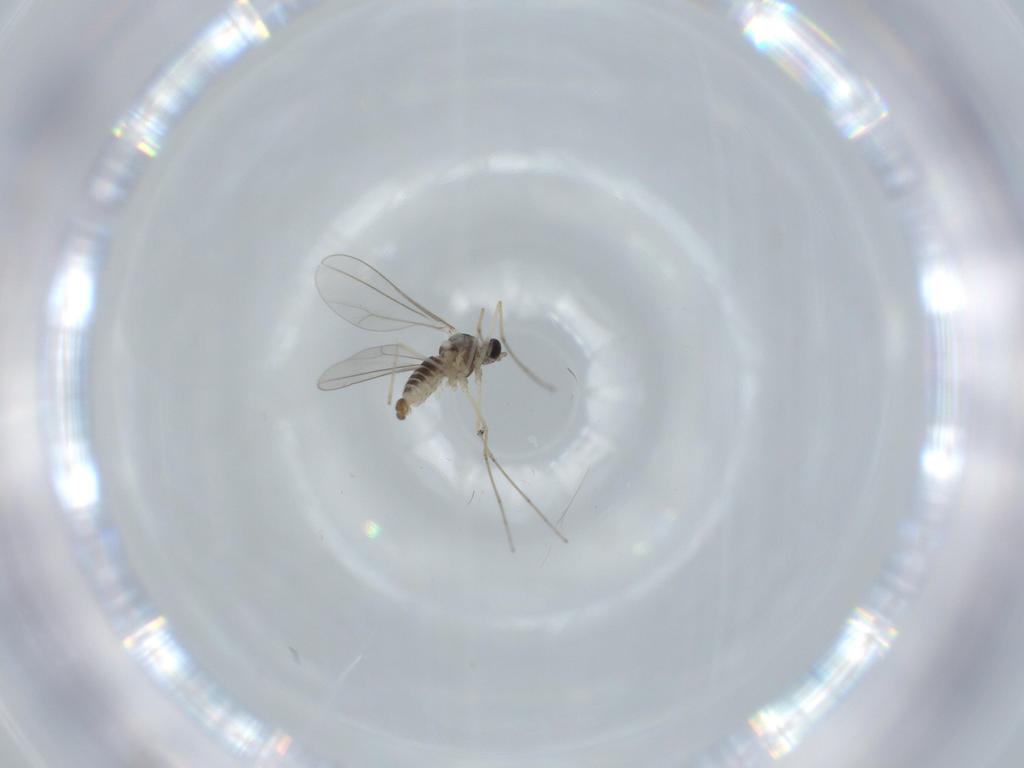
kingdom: Animalia
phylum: Arthropoda
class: Insecta
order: Diptera
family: Cecidomyiidae
